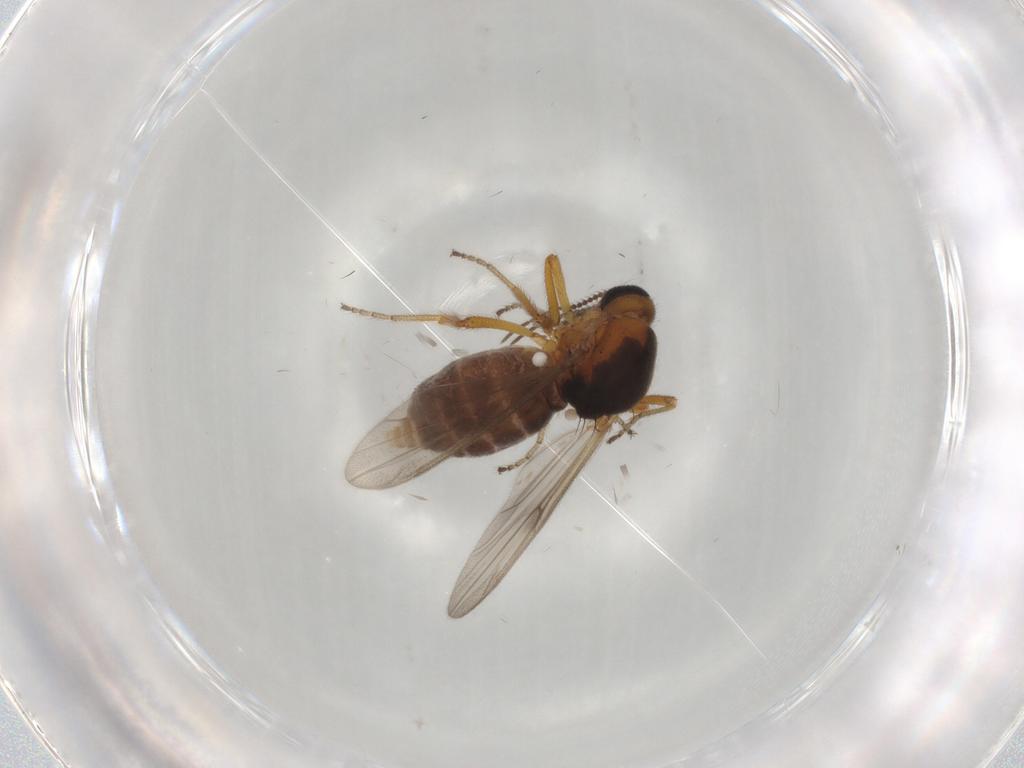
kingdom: Animalia
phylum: Arthropoda
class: Insecta
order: Diptera
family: Ceratopogonidae
